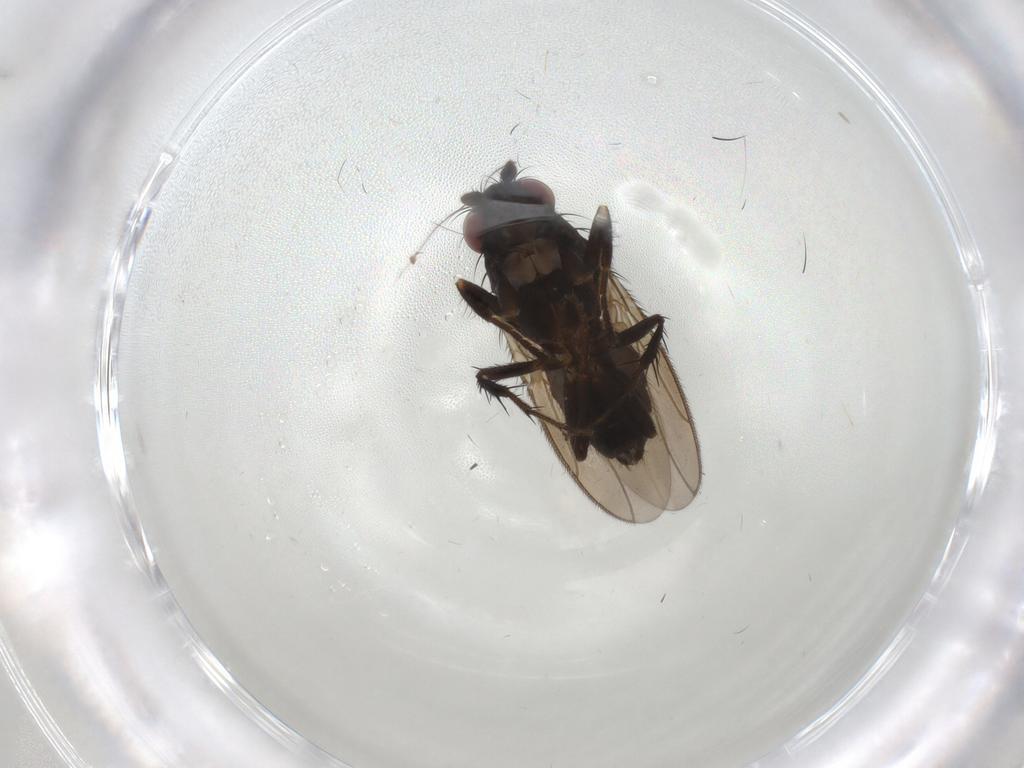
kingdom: Animalia
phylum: Arthropoda
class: Insecta
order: Diptera
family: Sphaeroceridae
